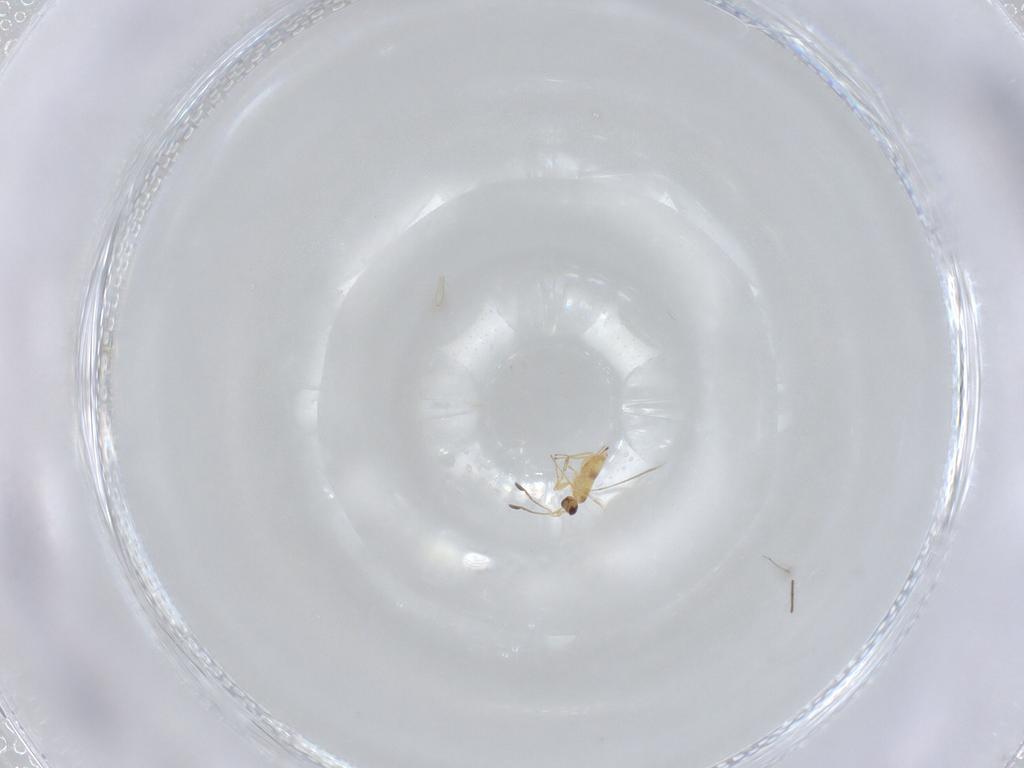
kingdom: Animalia
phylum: Arthropoda
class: Insecta
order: Hymenoptera
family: Mymaridae
